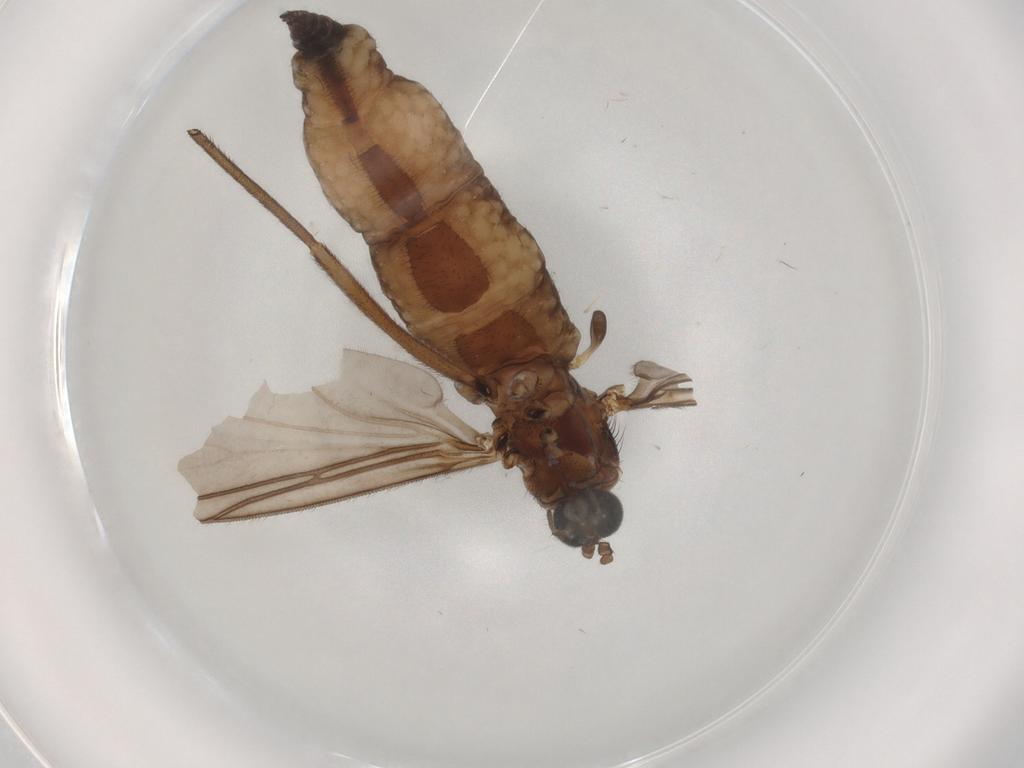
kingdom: Animalia
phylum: Arthropoda
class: Insecta
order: Diptera
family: Sciaridae
